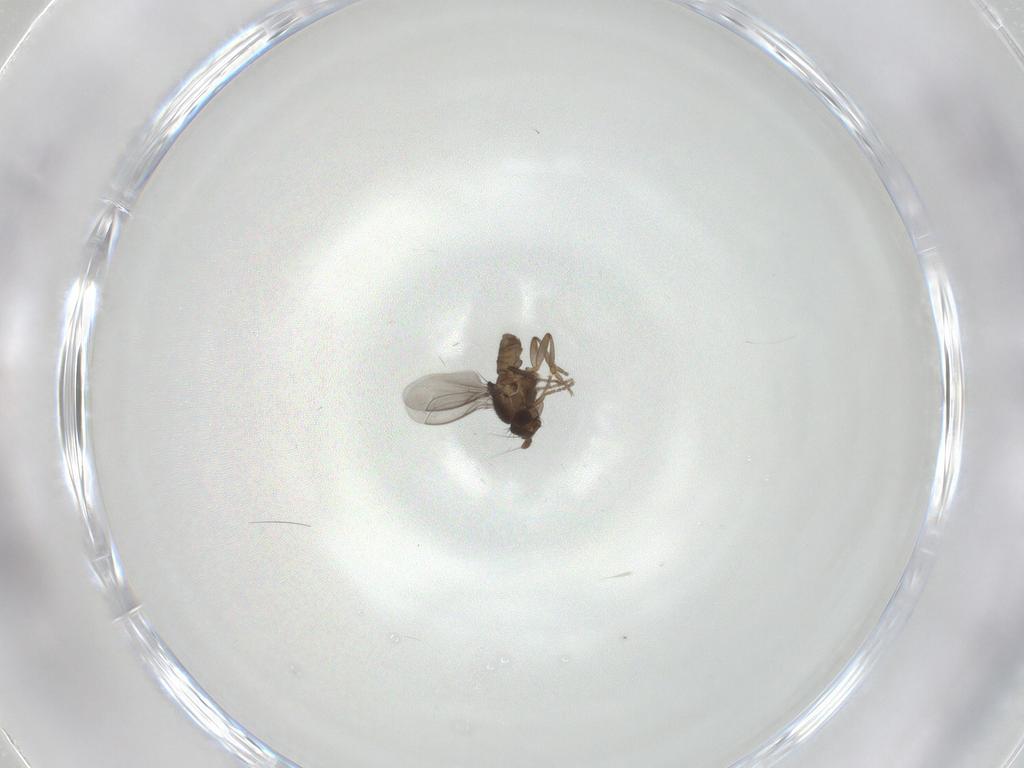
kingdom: Animalia
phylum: Arthropoda
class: Insecta
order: Diptera
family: Sphaeroceridae
